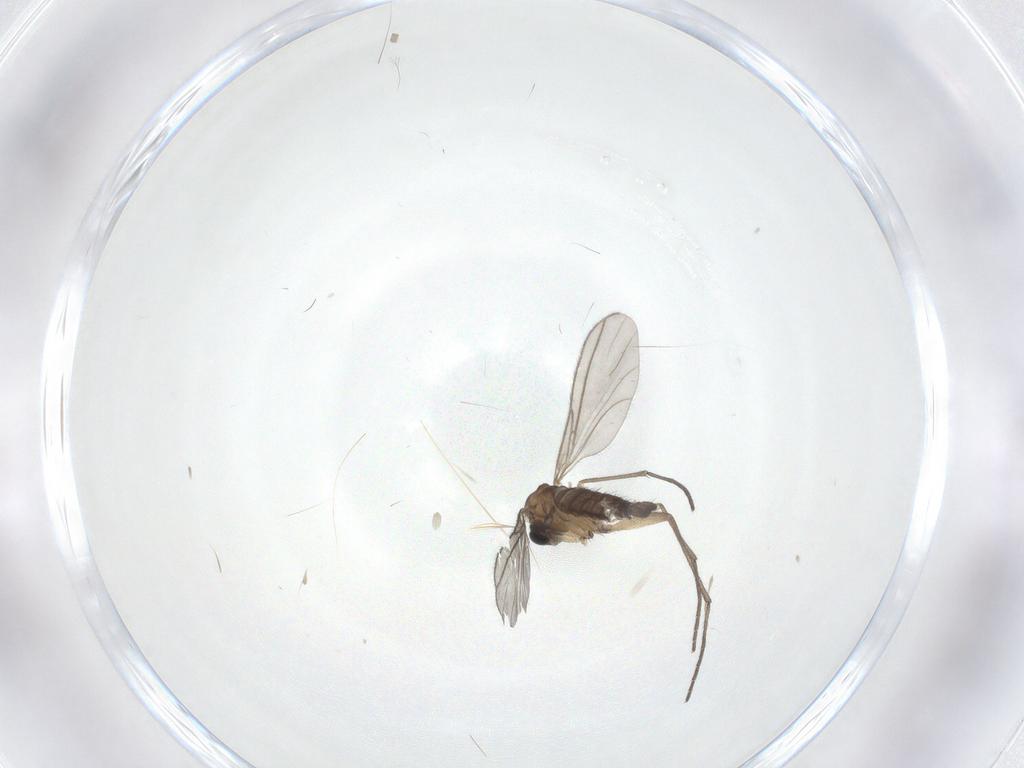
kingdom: Animalia
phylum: Arthropoda
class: Insecta
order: Diptera
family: Sciaridae
